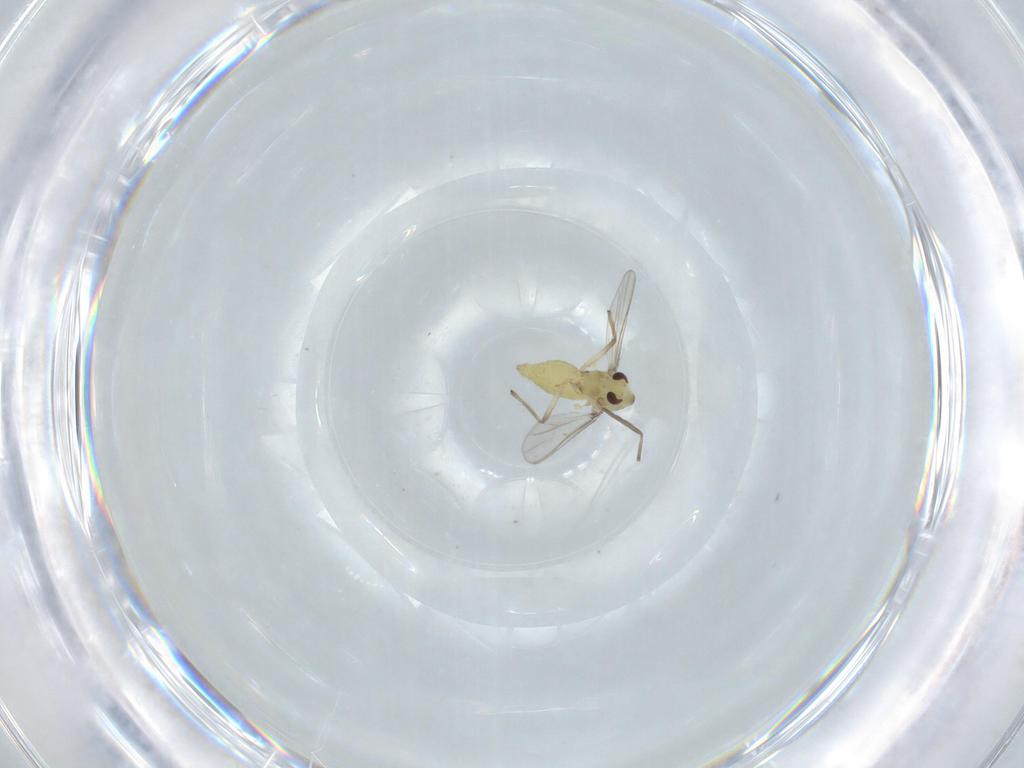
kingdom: Animalia
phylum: Arthropoda
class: Insecta
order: Diptera
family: Chironomidae
